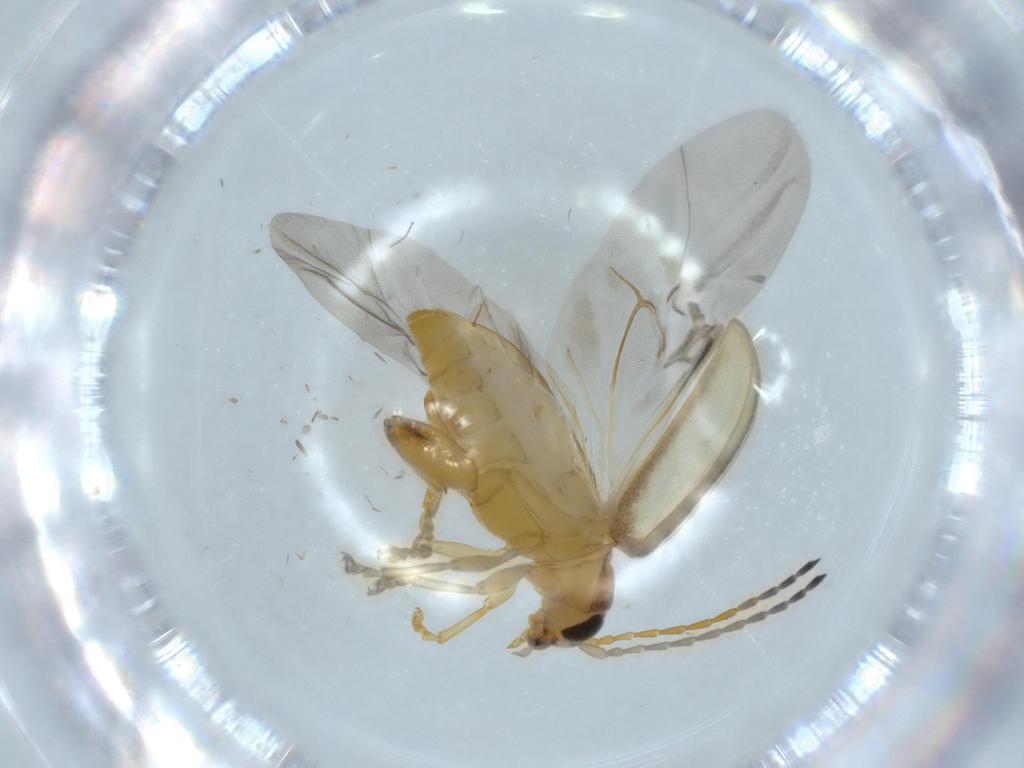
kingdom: Animalia
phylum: Arthropoda
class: Insecta
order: Coleoptera
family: Chrysomelidae
